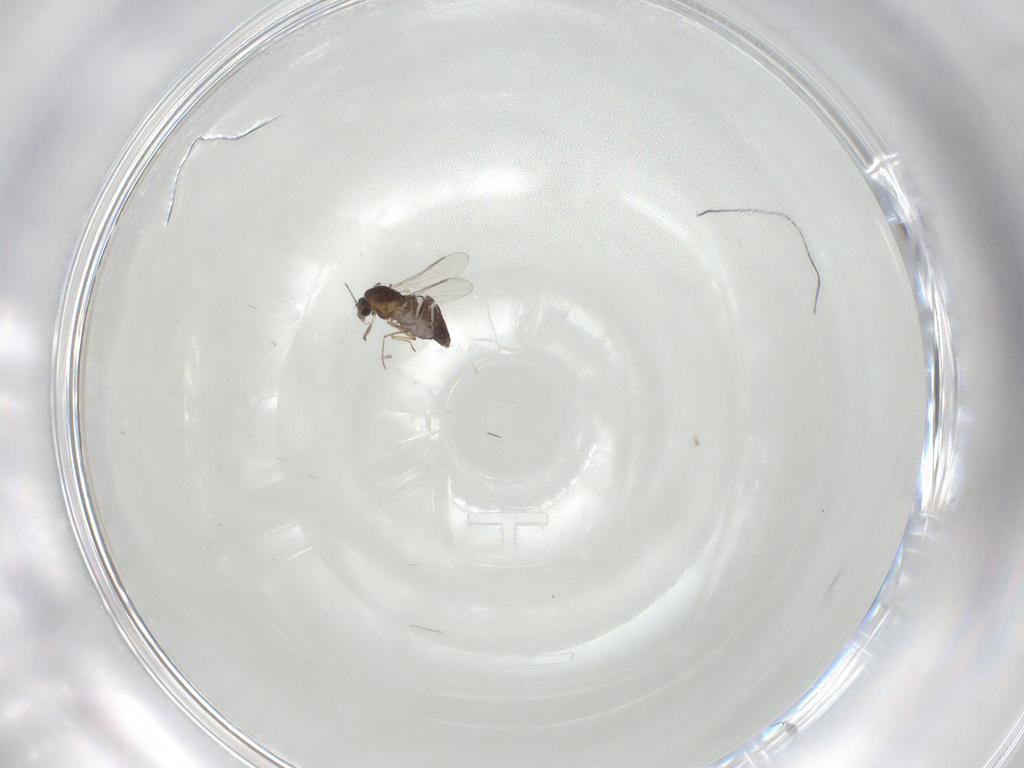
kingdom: Animalia
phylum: Arthropoda
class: Insecta
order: Diptera
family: Chironomidae
